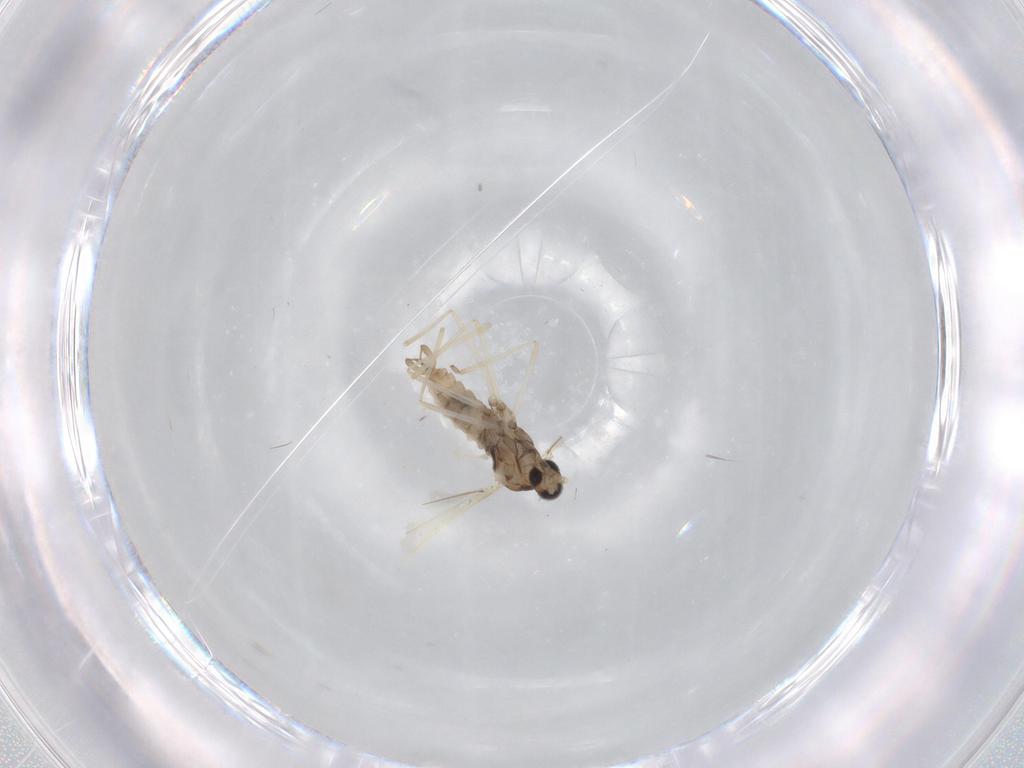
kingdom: Animalia
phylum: Arthropoda
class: Insecta
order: Diptera
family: Cecidomyiidae
